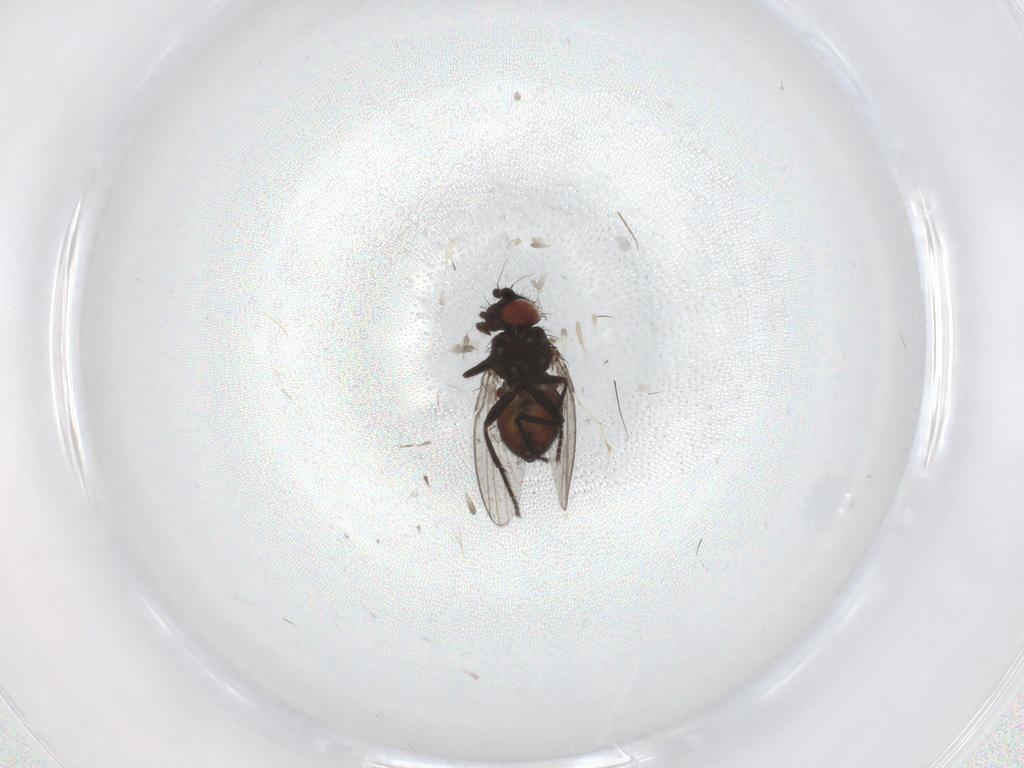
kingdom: Animalia
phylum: Arthropoda
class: Insecta
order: Diptera
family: Milichiidae
